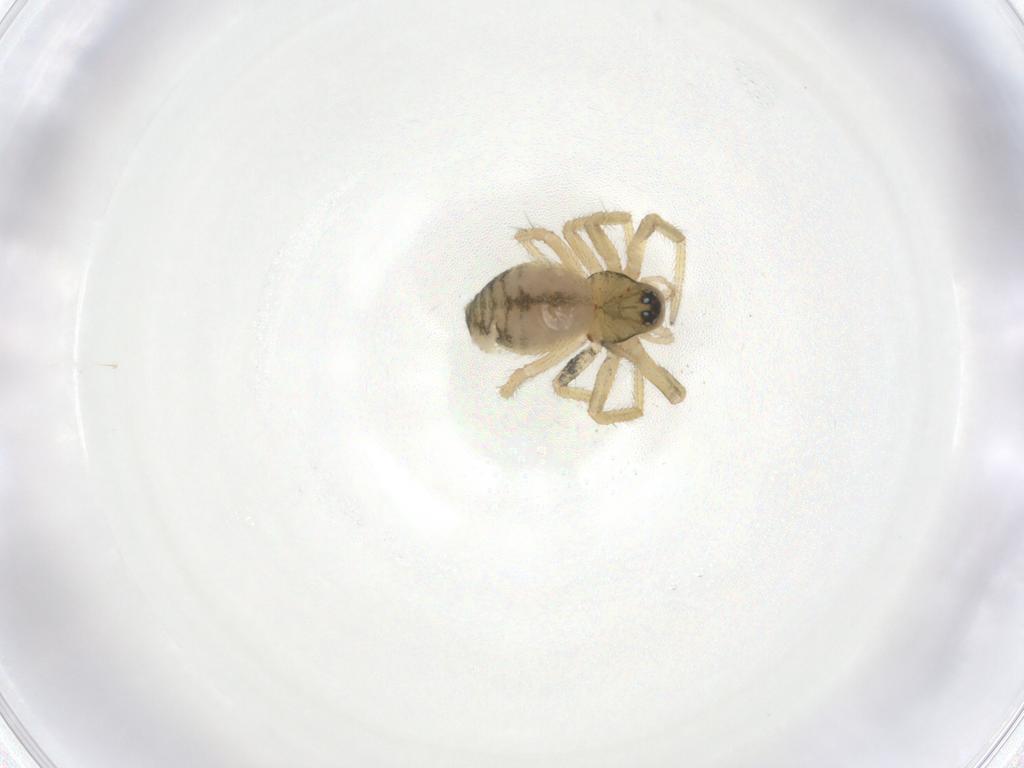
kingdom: Animalia
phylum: Arthropoda
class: Arachnida
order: Araneae
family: Linyphiidae
